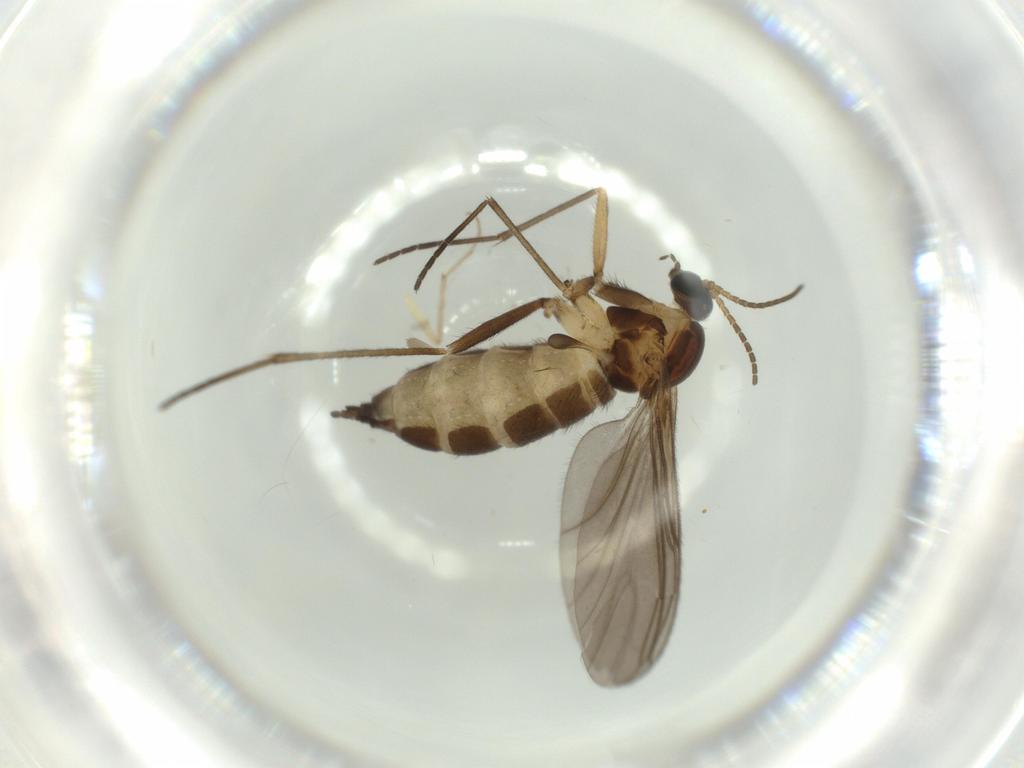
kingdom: Animalia
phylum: Arthropoda
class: Insecta
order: Diptera
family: Sciaridae
